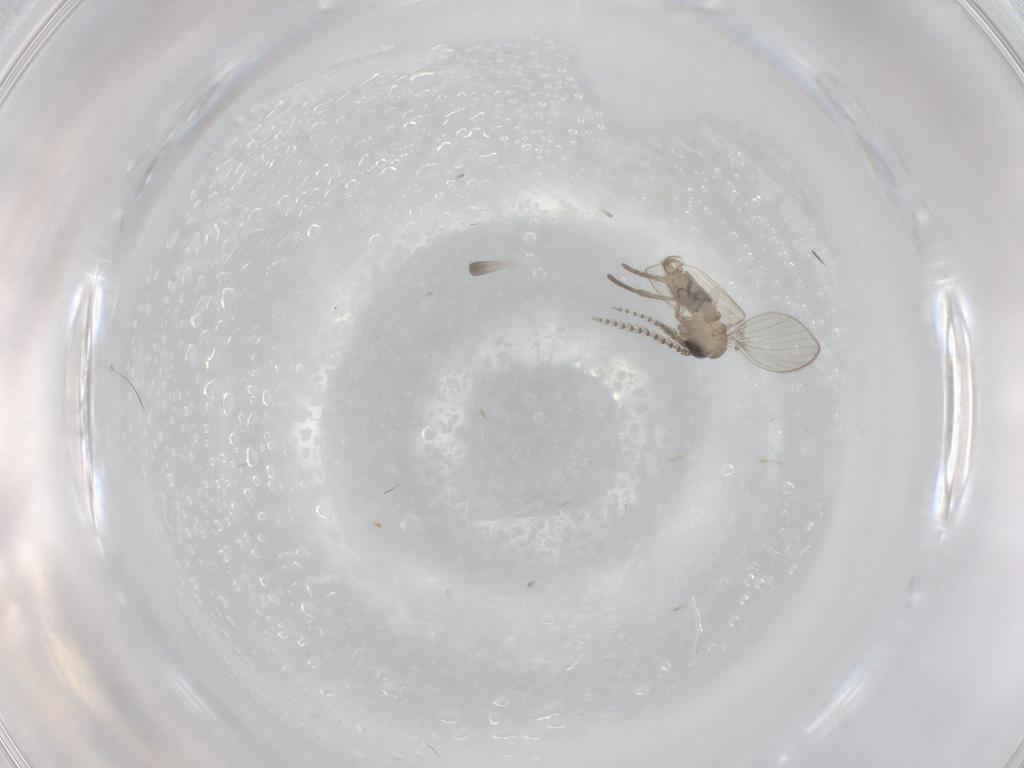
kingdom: Animalia
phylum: Arthropoda
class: Insecta
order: Diptera
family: Psychodidae
